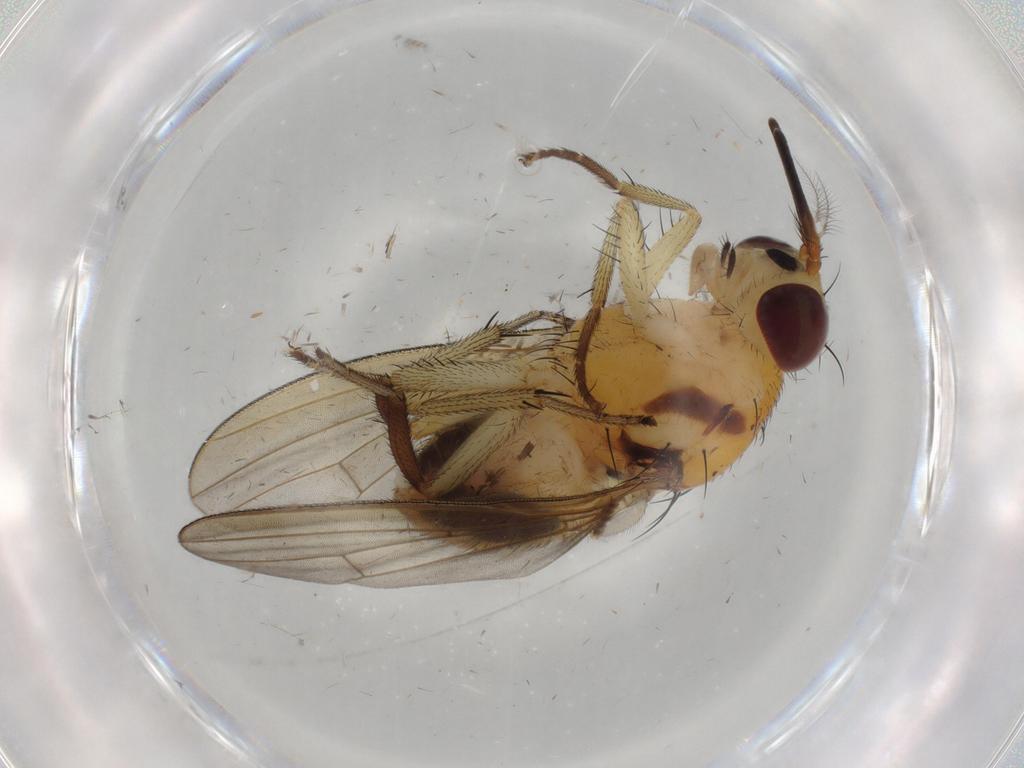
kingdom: Animalia
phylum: Arthropoda
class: Insecta
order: Diptera
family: Lauxaniidae
